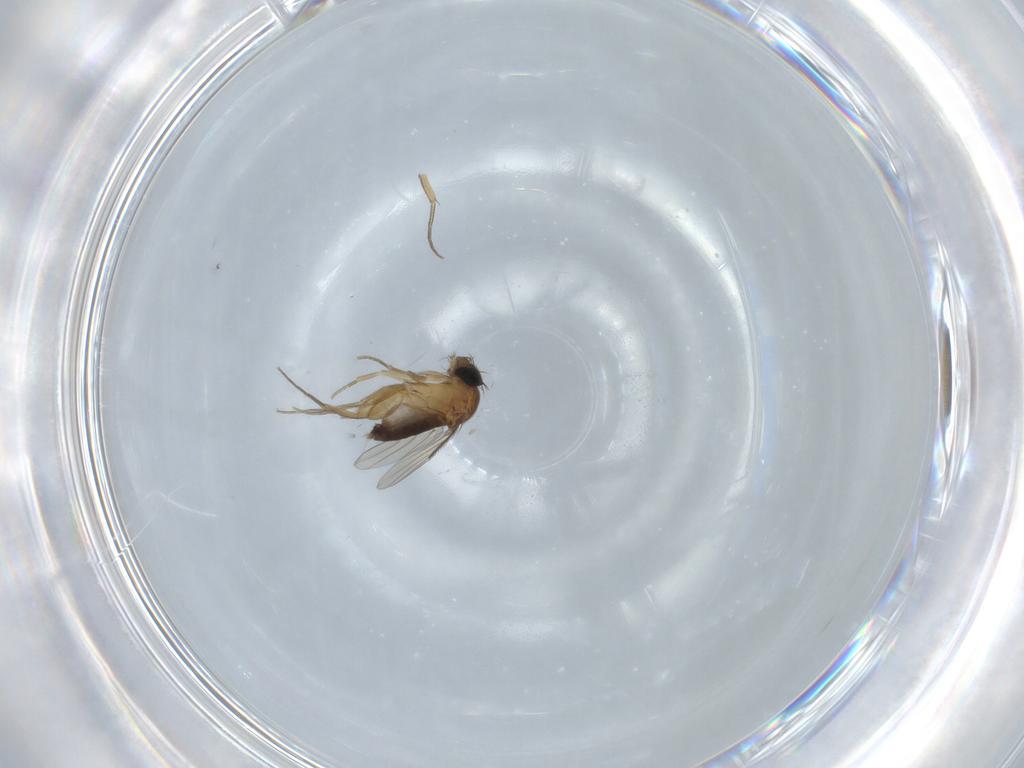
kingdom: Animalia
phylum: Arthropoda
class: Insecta
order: Diptera
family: Phoridae
